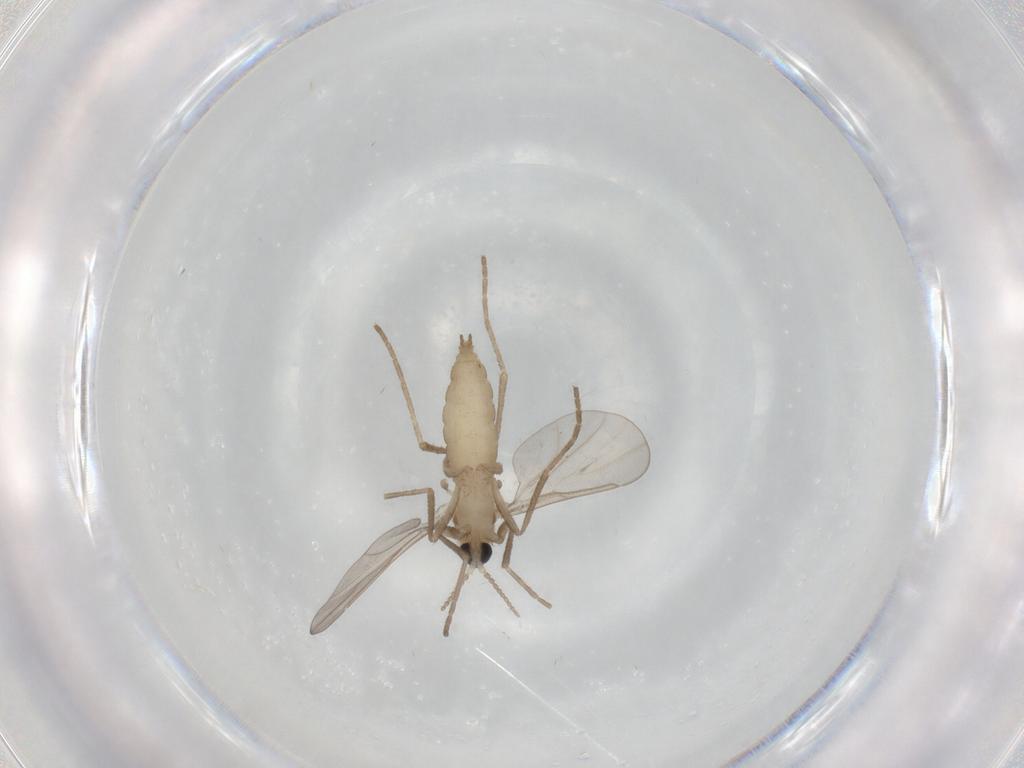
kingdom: Animalia
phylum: Arthropoda
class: Insecta
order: Diptera
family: Cecidomyiidae
